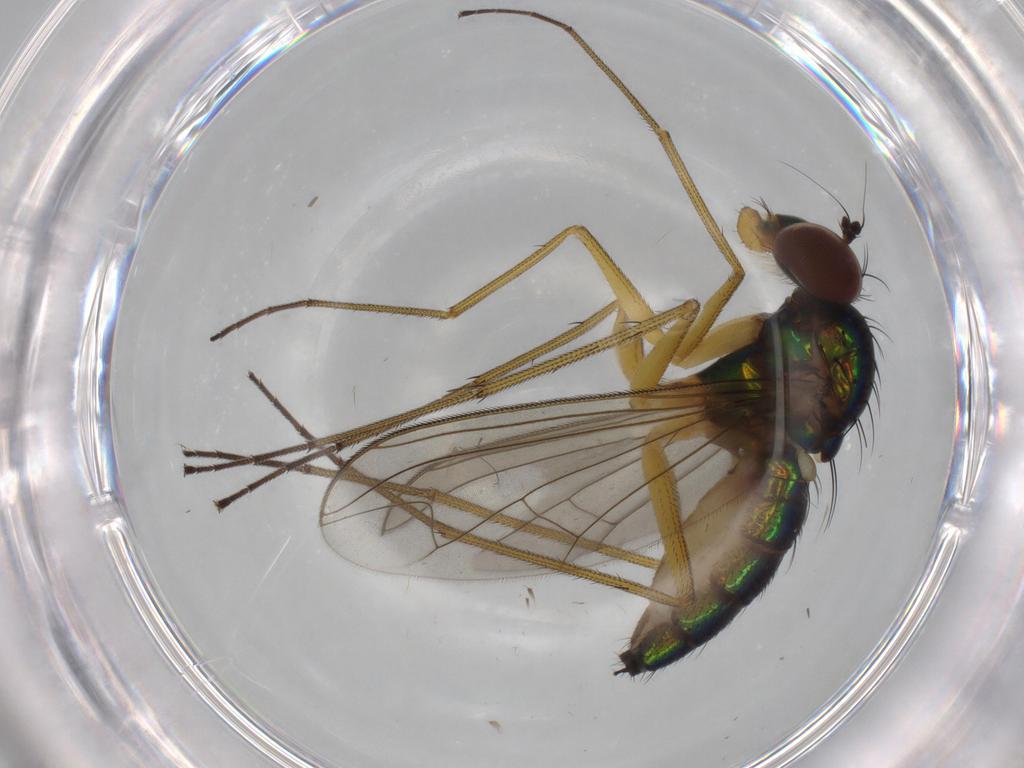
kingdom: Animalia
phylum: Arthropoda
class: Insecta
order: Diptera
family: Dolichopodidae
